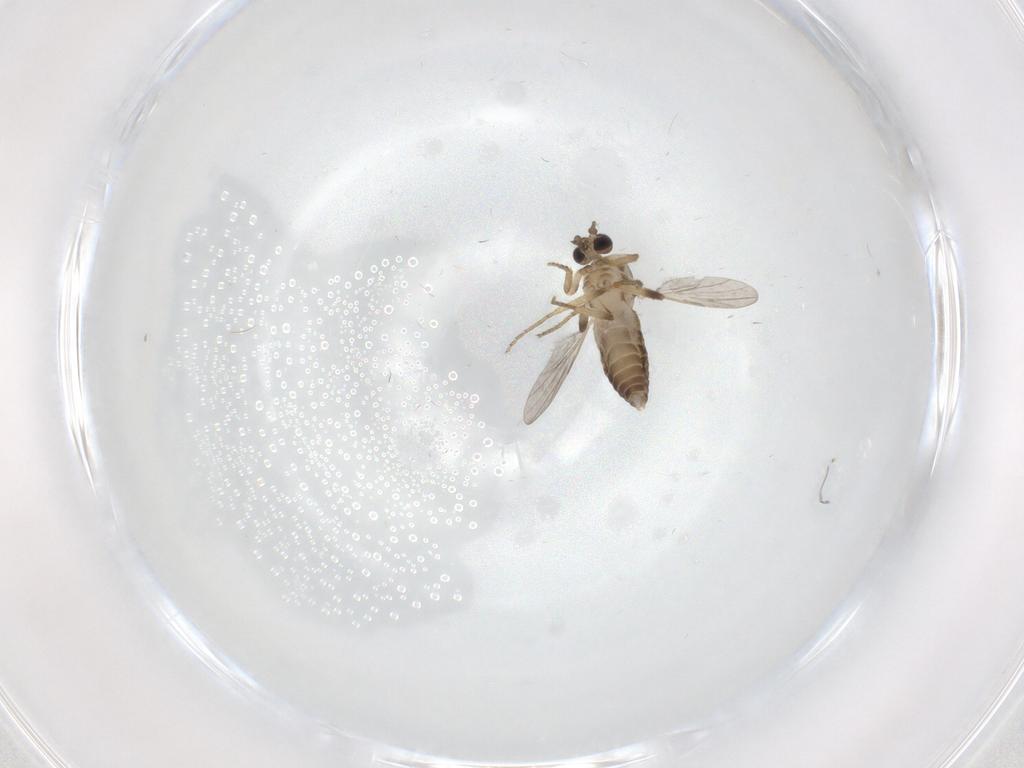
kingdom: Animalia
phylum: Arthropoda
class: Insecta
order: Diptera
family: Ceratopogonidae
